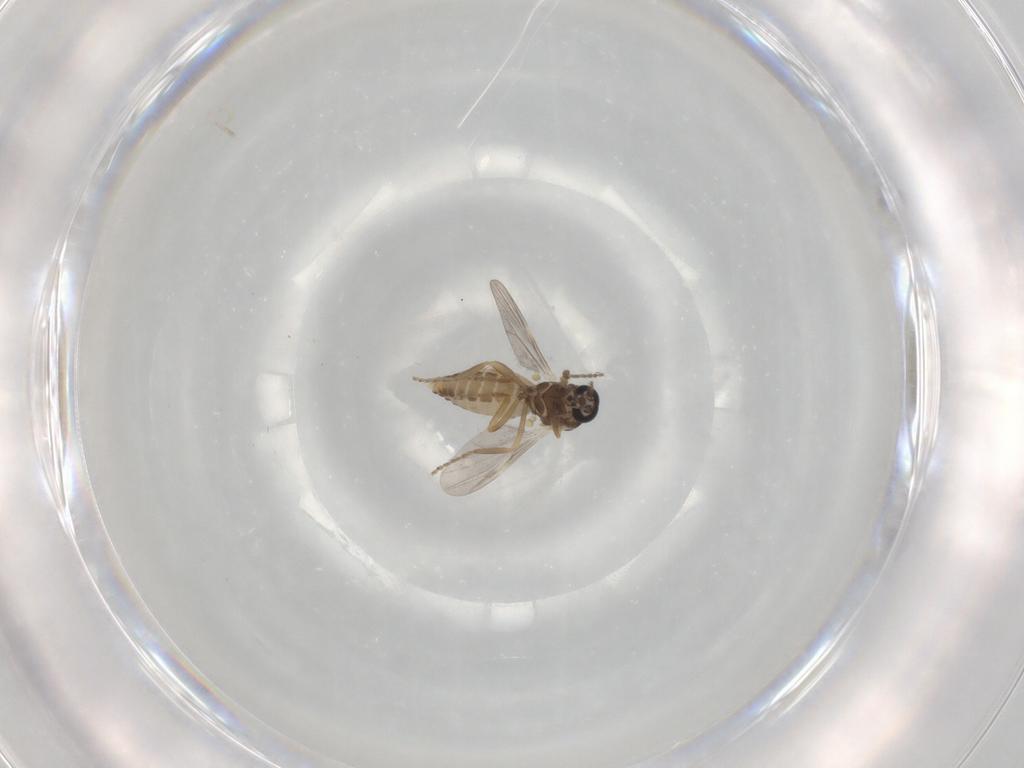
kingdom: Animalia
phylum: Arthropoda
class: Insecta
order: Diptera
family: Ceratopogonidae
